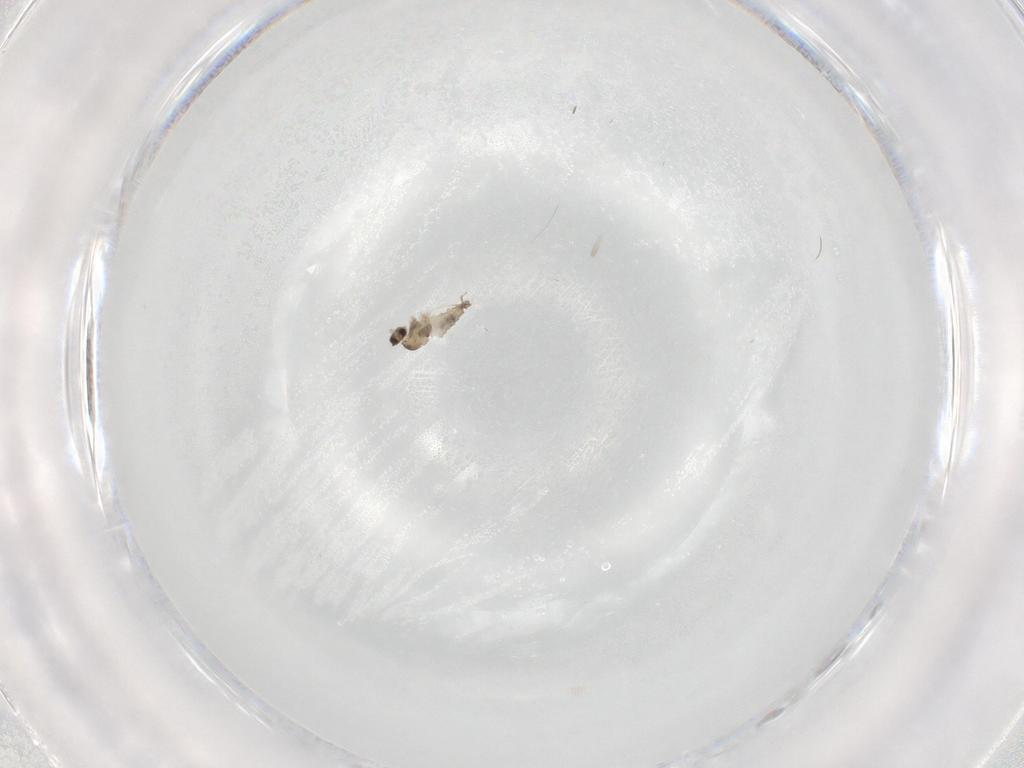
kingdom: Animalia
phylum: Arthropoda
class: Insecta
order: Diptera
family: Cecidomyiidae
